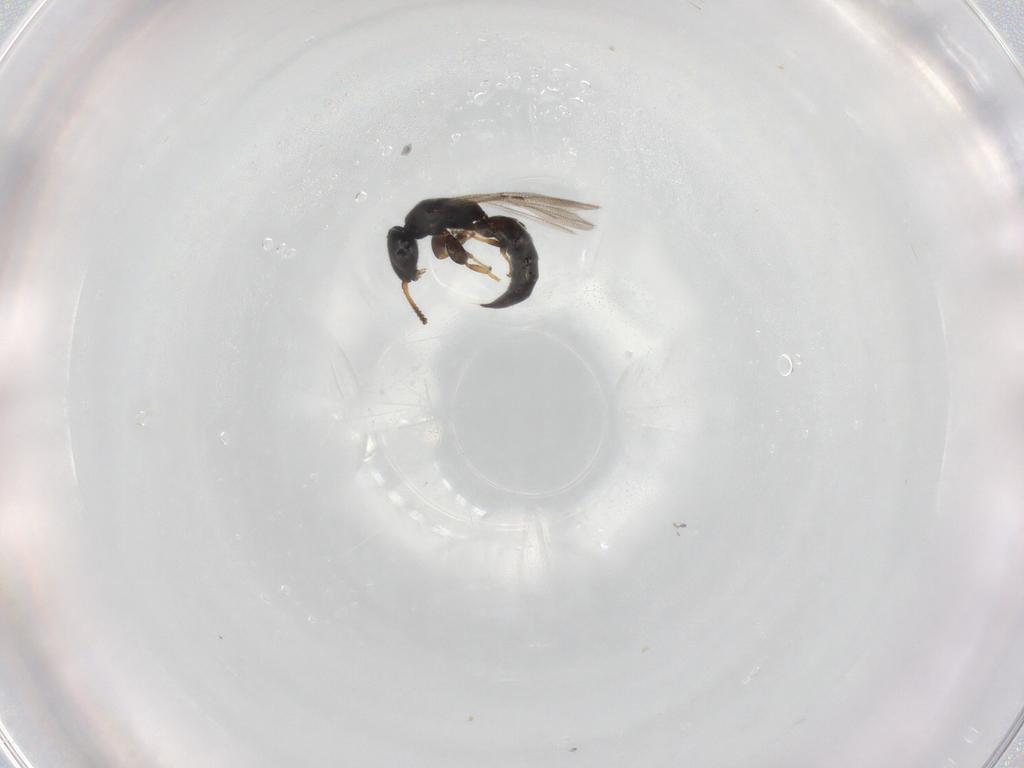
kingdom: Animalia
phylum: Arthropoda
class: Insecta
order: Hymenoptera
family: Bethylidae
